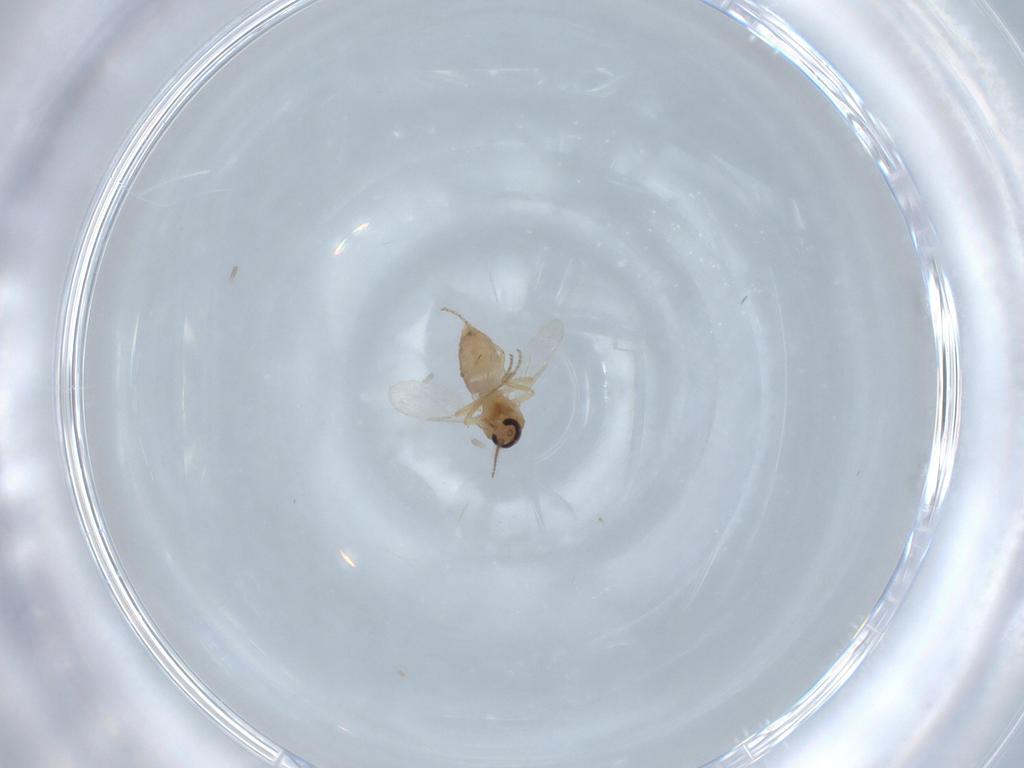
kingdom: Animalia
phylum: Arthropoda
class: Insecta
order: Diptera
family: Ceratopogonidae
